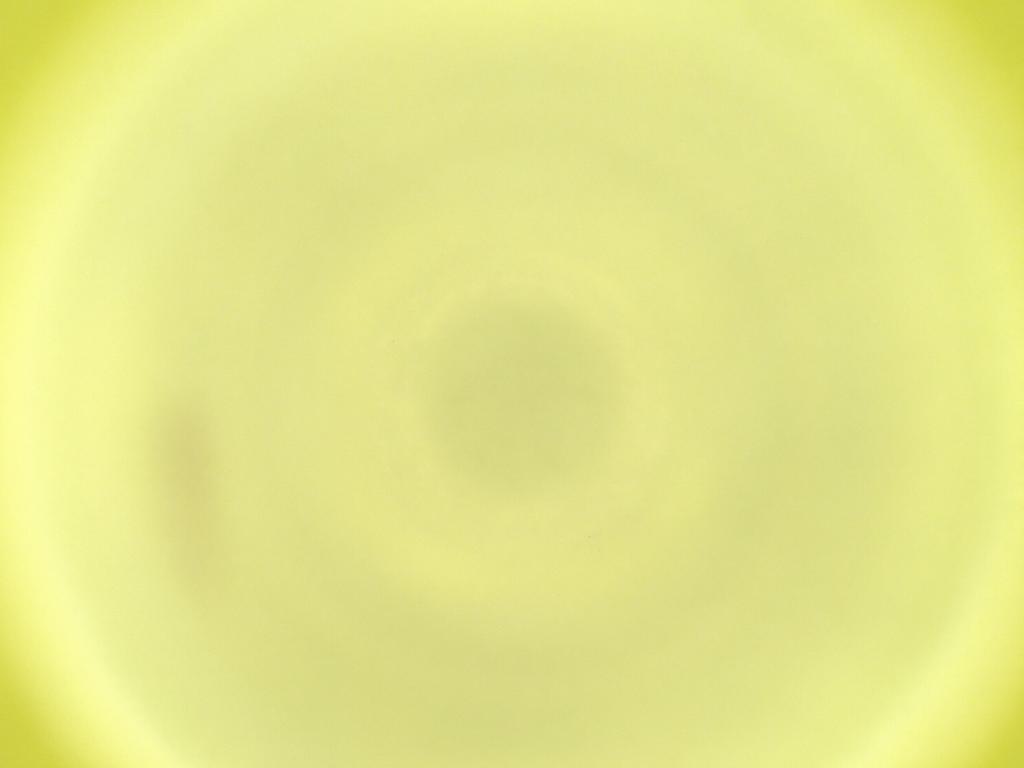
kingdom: Animalia
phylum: Arthropoda
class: Insecta
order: Diptera
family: Cecidomyiidae
